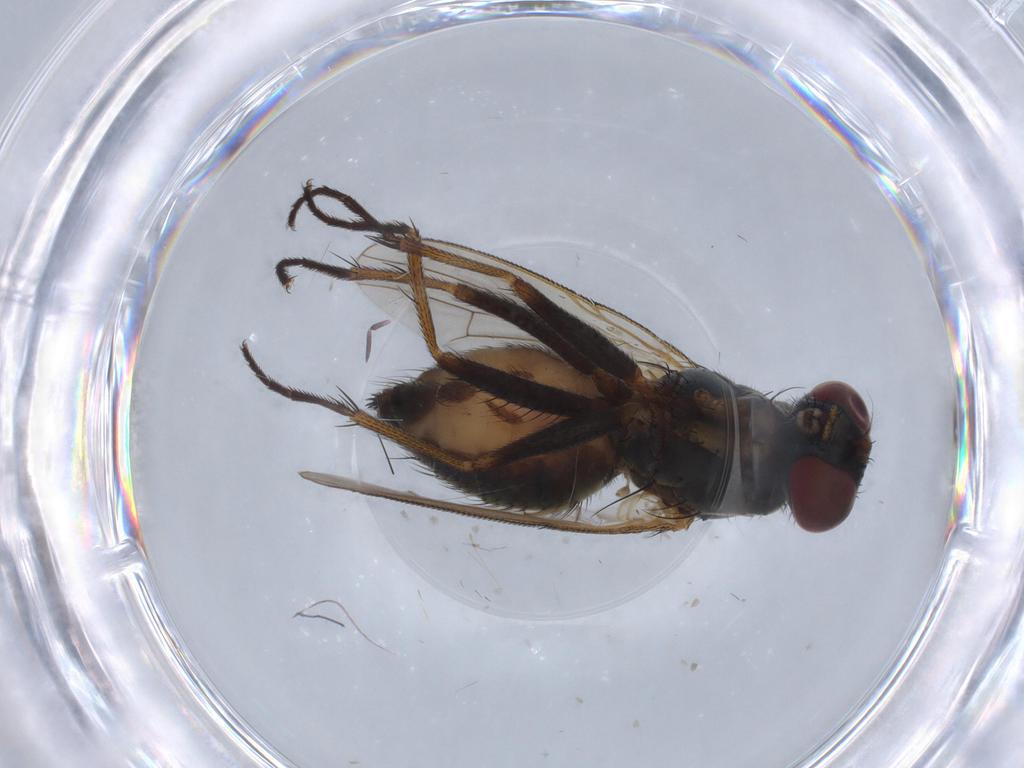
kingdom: Animalia
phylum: Arthropoda
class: Insecta
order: Diptera
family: Muscidae
